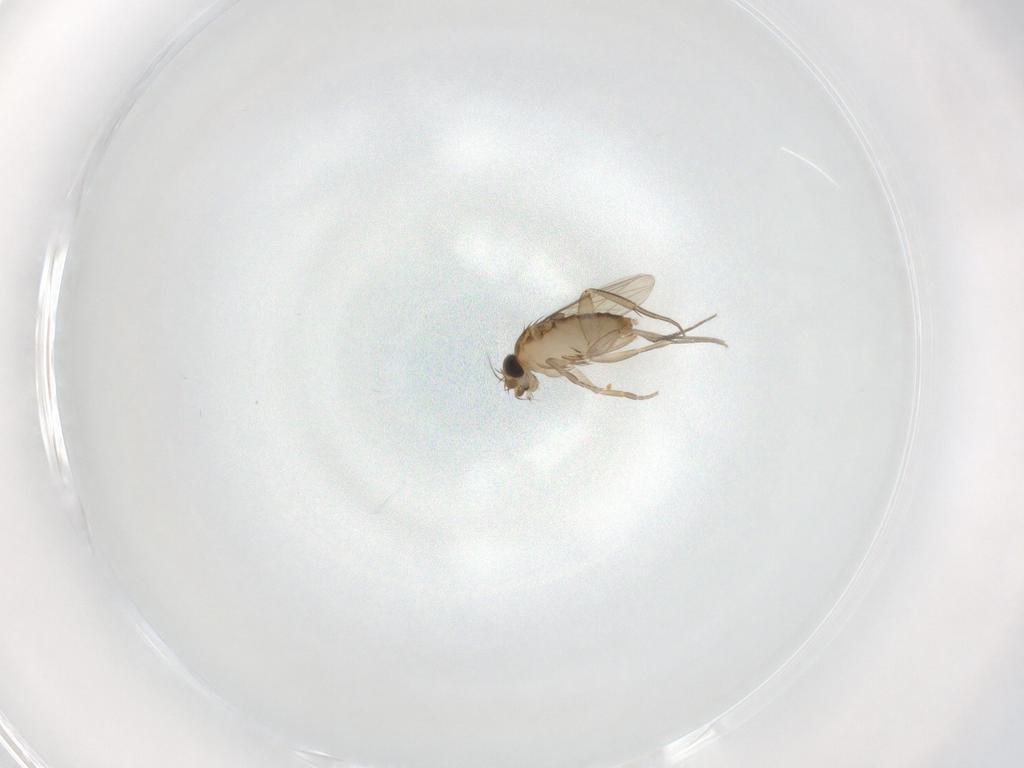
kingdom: Animalia
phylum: Arthropoda
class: Insecta
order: Diptera
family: Phoridae
